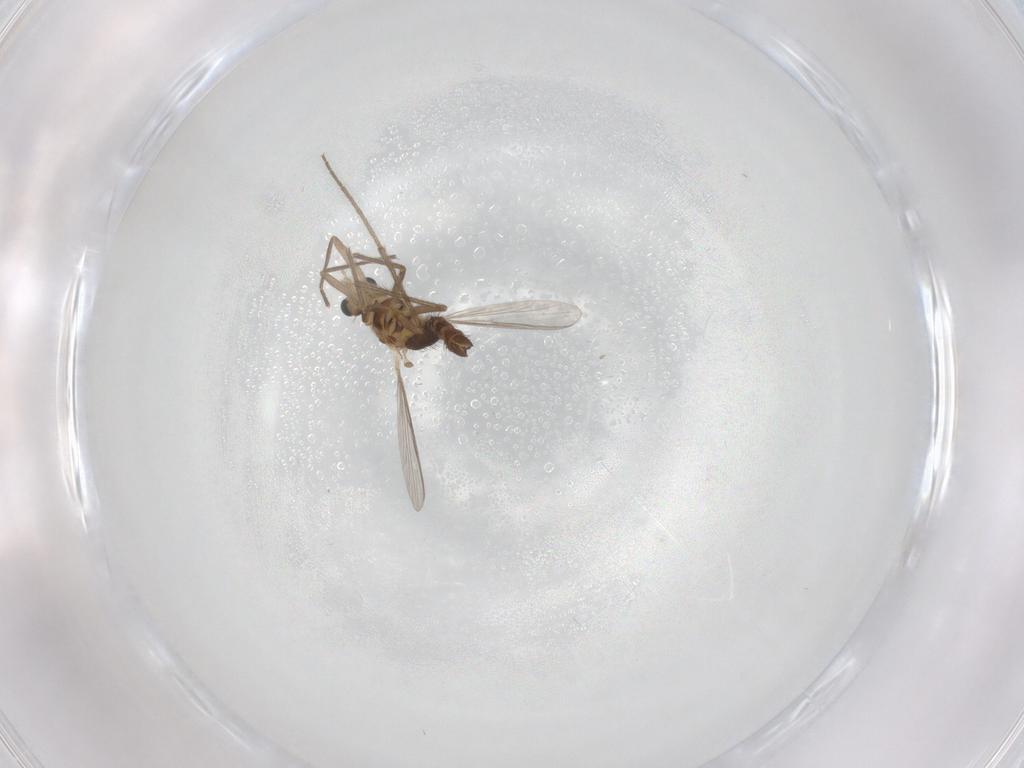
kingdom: Animalia
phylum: Arthropoda
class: Insecta
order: Diptera
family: Chironomidae
